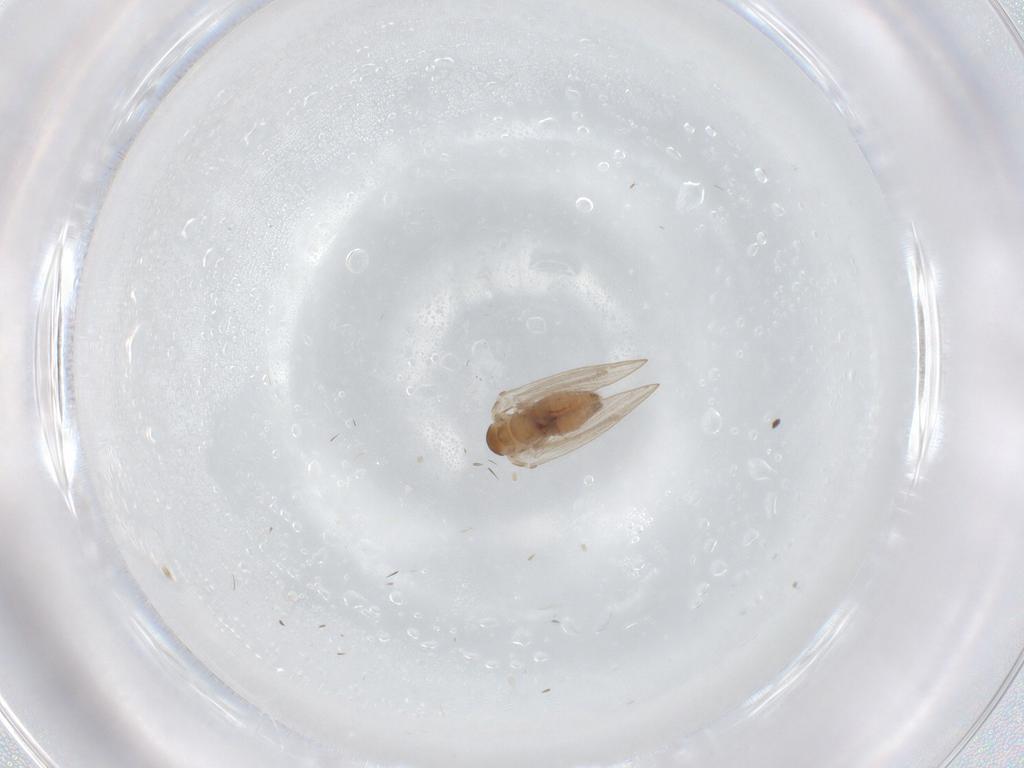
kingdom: Animalia
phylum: Arthropoda
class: Insecta
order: Diptera
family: Psychodidae
